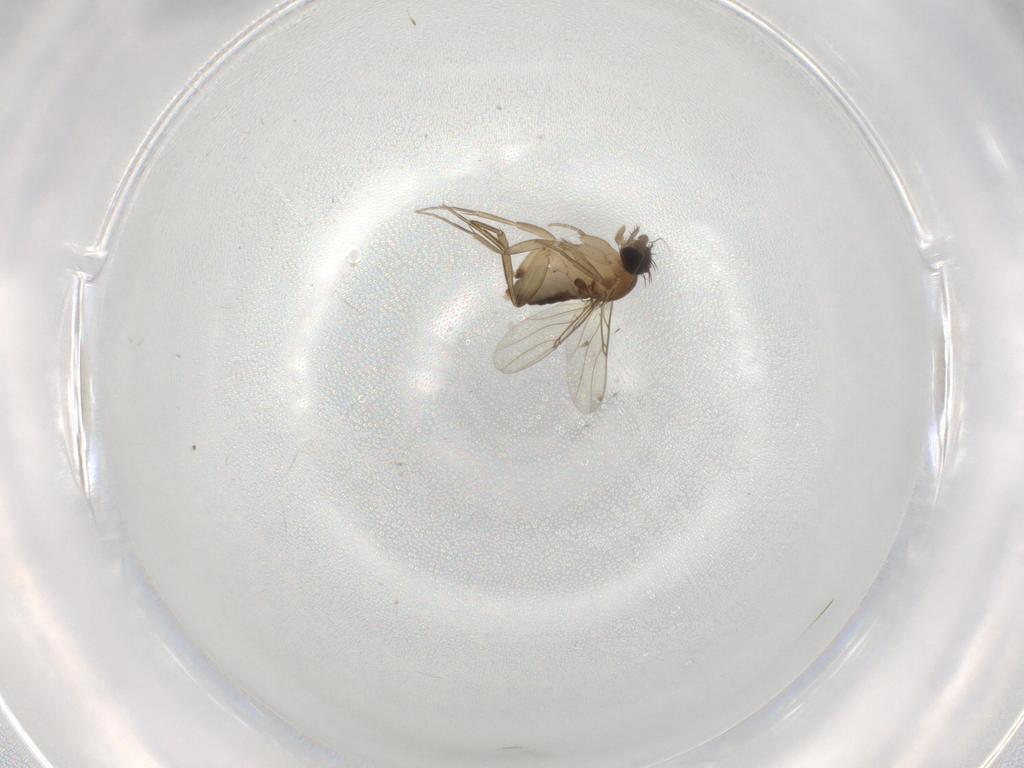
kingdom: Animalia
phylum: Arthropoda
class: Insecta
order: Diptera
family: Phoridae
